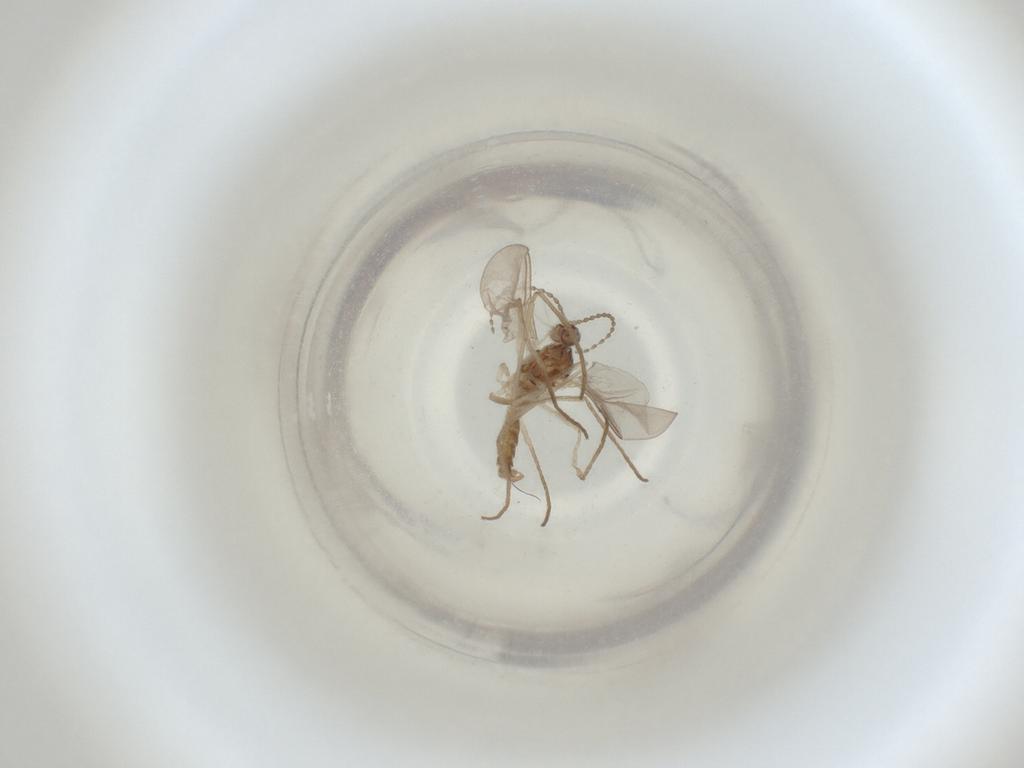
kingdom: Animalia
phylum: Arthropoda
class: Insecta
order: Diptera
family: Cecidomyiidae
